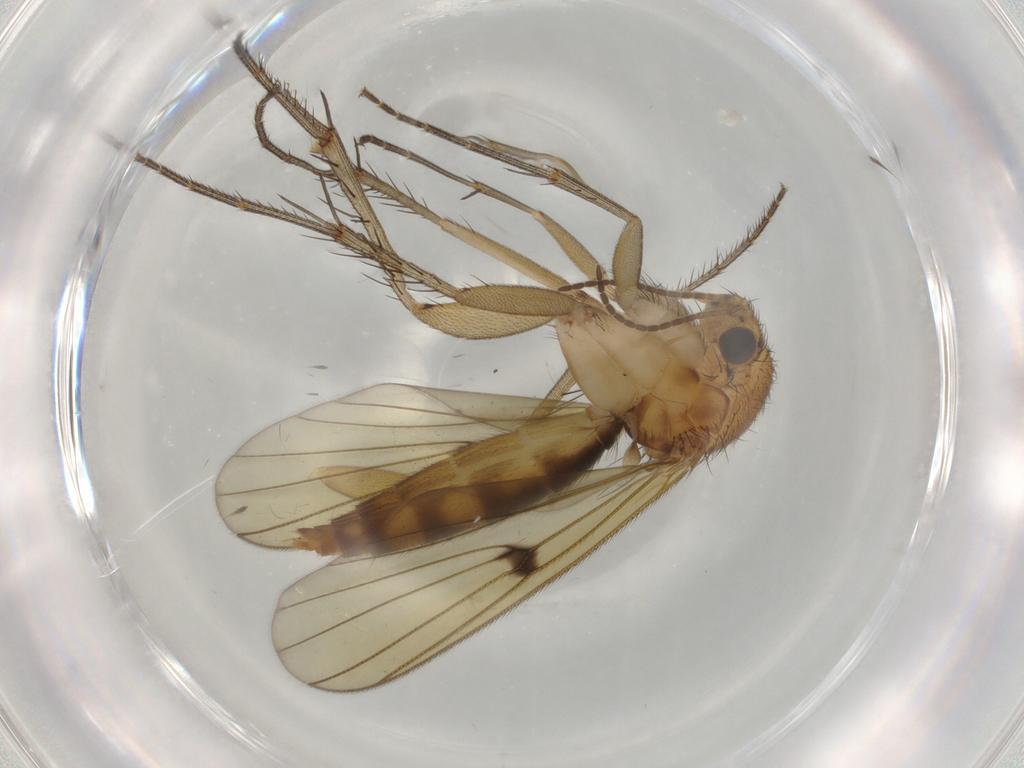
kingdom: Animalia
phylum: Arthropoda
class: Insecta
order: Diptera
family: Mycetophilidae
